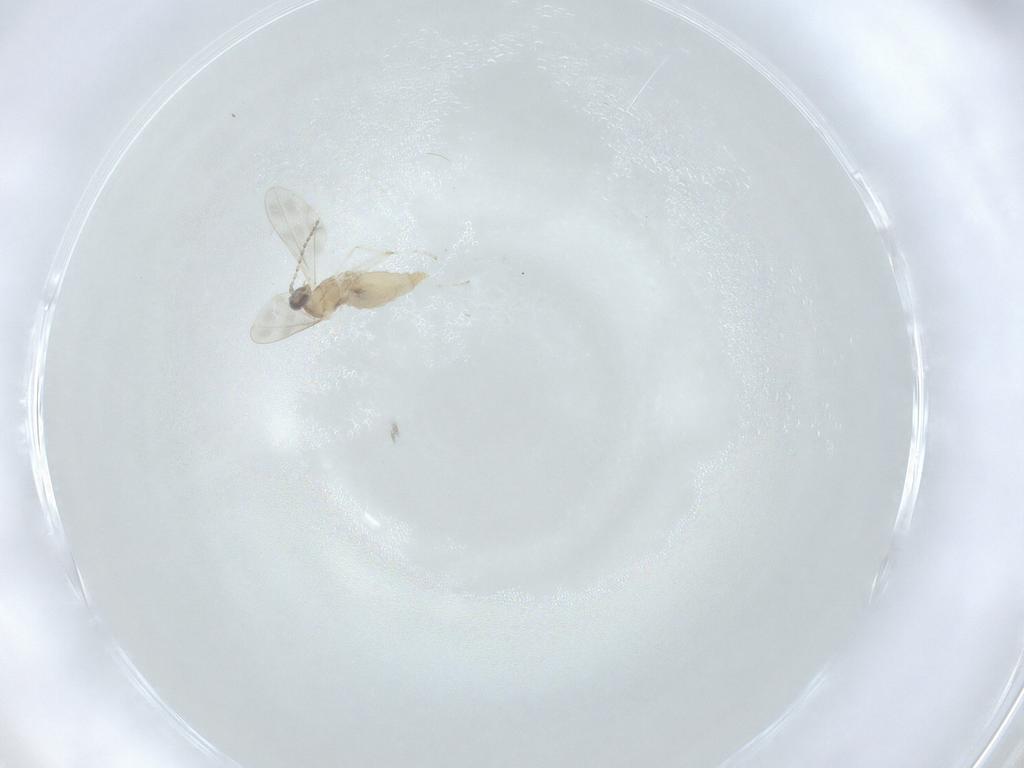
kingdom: Animalia
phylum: Arthropoda
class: Insecta
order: Diptera
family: Cecidomyiidae
